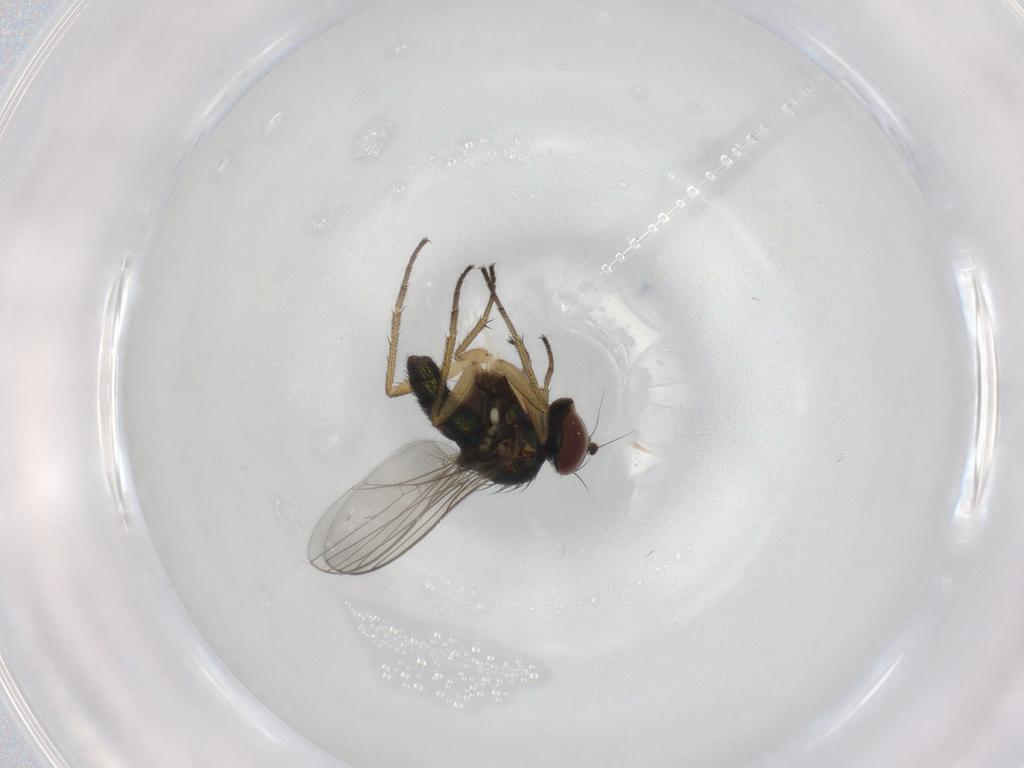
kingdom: Animalia
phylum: Arthropoda
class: Insecta
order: Diptera
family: Dolichopodidae
